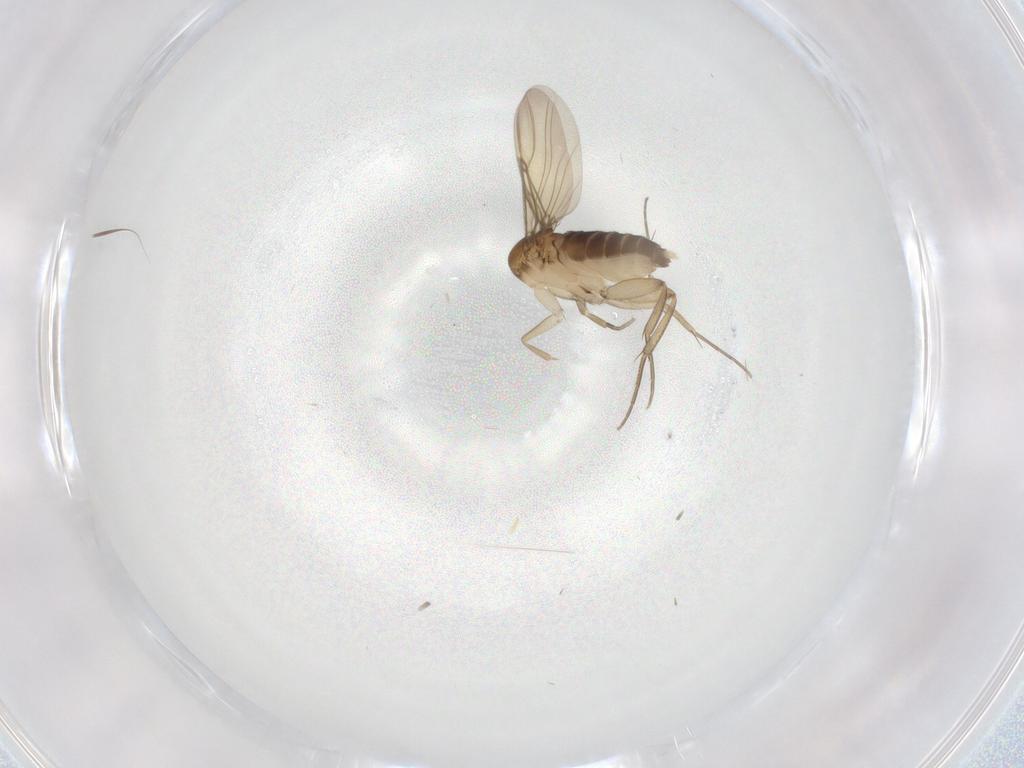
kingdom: Animalia
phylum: Arthropoda
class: Insecta
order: Diptera
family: Phoridae
